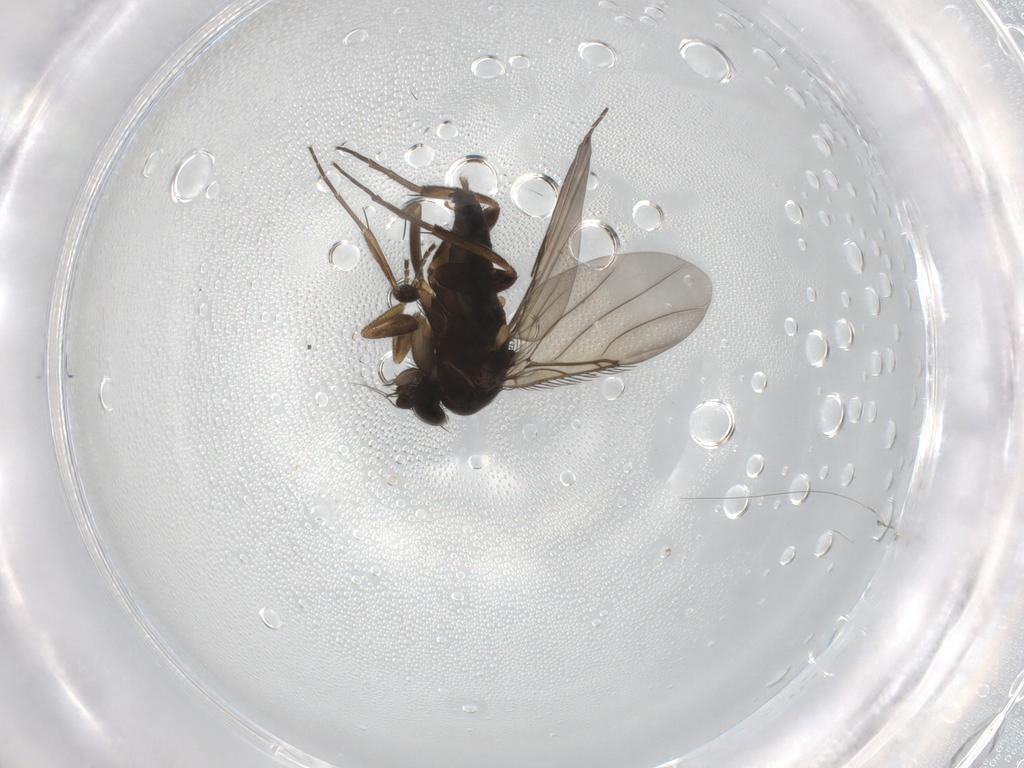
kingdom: Animalia
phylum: Arthropoda
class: Insecta
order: Diptera
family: Phoridae
